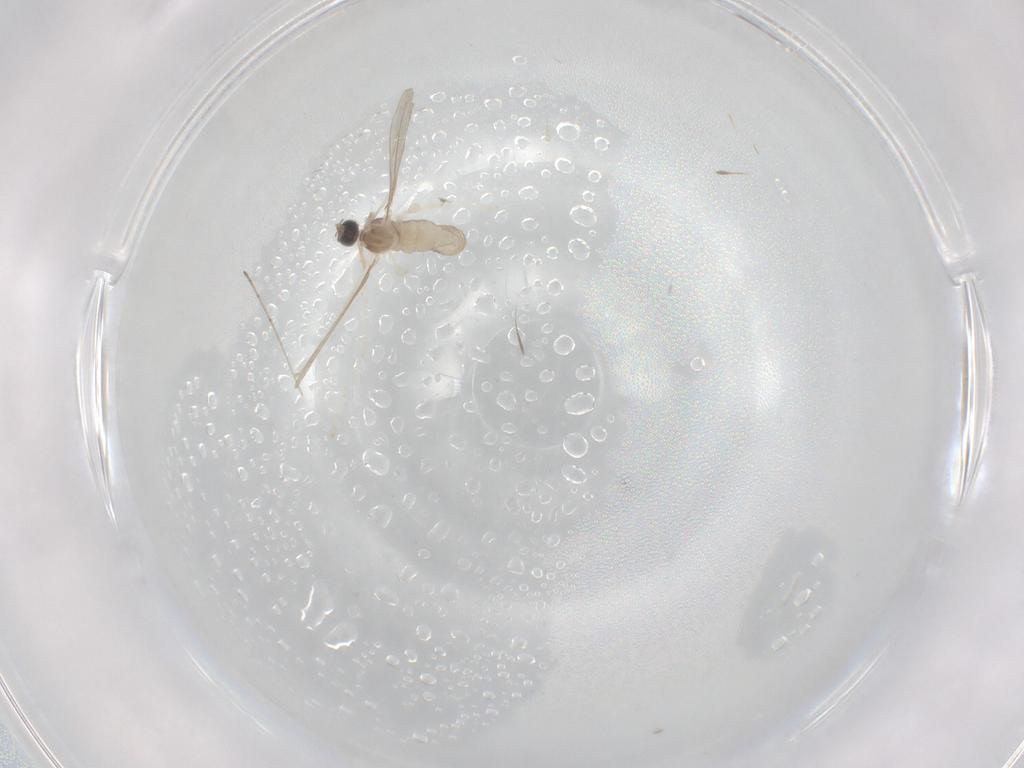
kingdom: Animalia
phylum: Arthropoda
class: Insecta
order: Diptera
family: Cecidomyiidae
